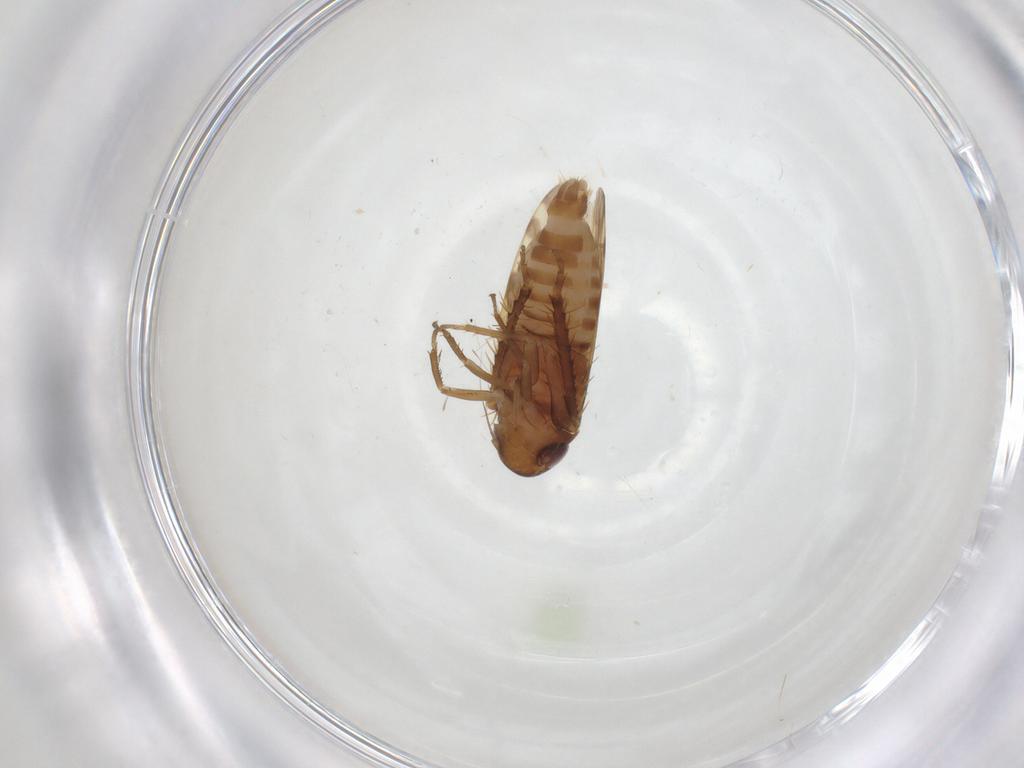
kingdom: Animalia
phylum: Arthropoda
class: Insecta
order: Hemiptera
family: Cicadellidae
